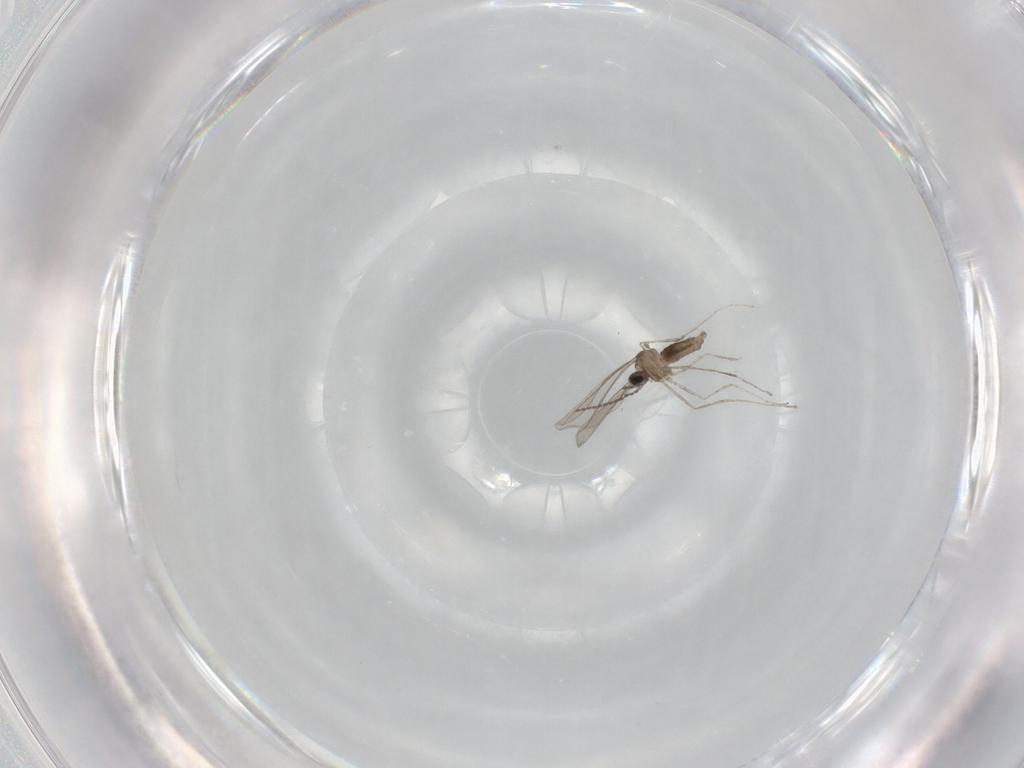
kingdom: Animalia
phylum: Arthropoda
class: Insecta
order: Diptera
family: Cecidomyiidae
